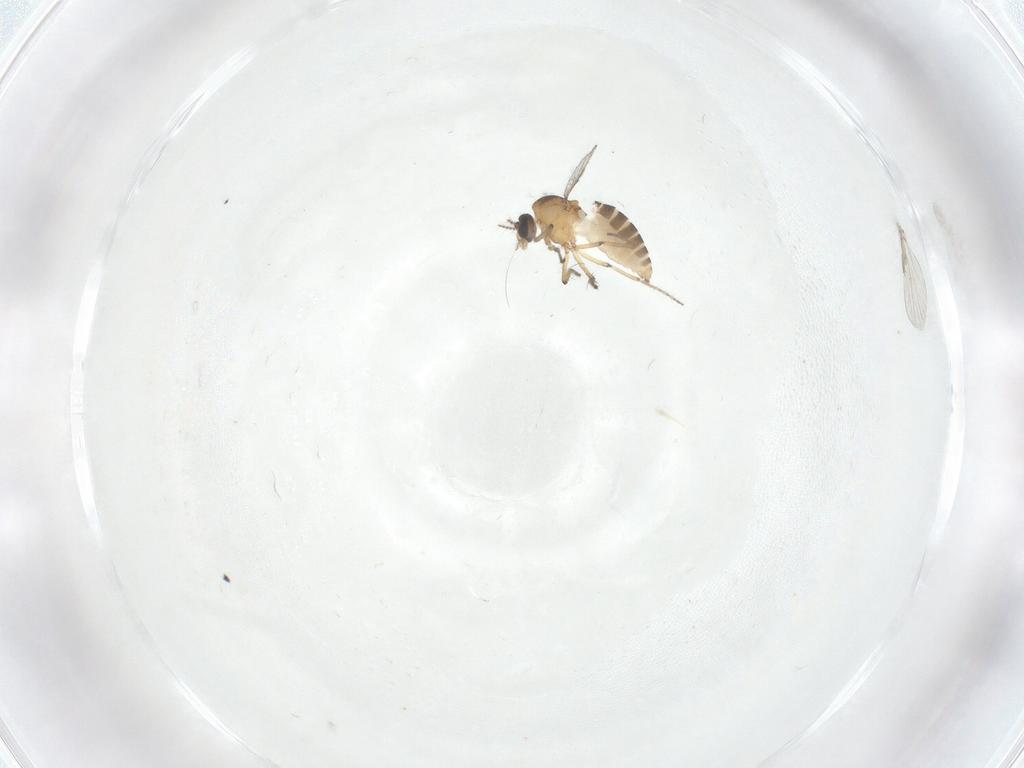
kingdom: Animalia
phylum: Arthropoda
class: Insecta
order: Diptera
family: Ceratopogonidae
